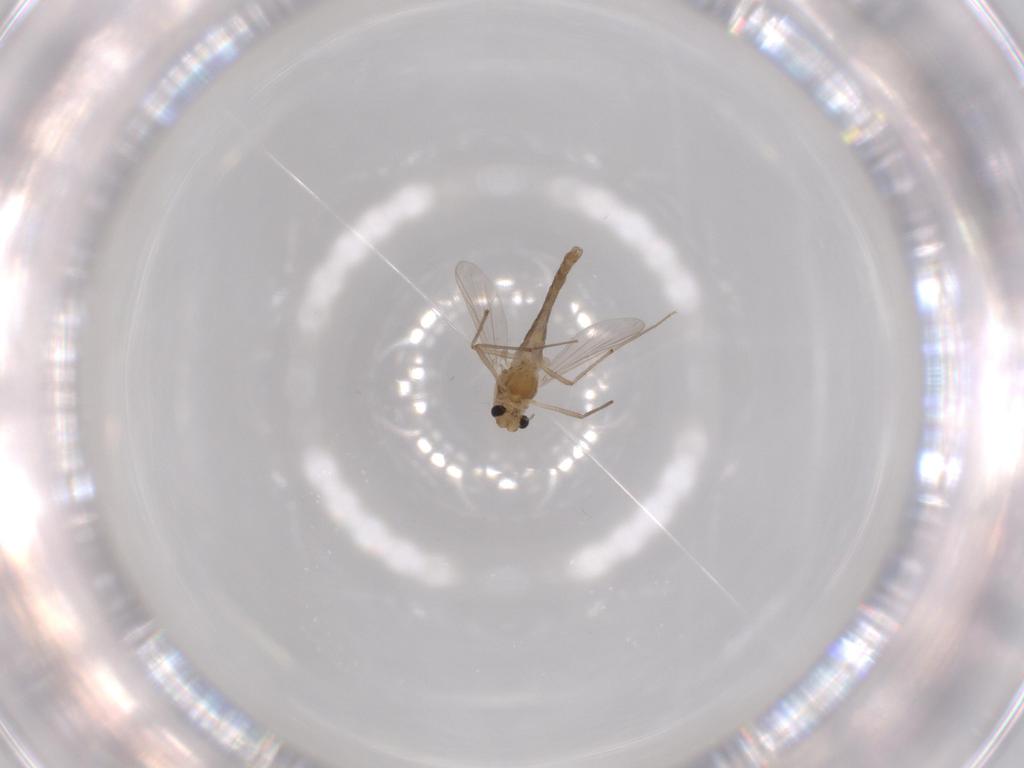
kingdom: Animalia
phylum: Arthropoda
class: Insecta
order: Diptera
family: Chironomidae
